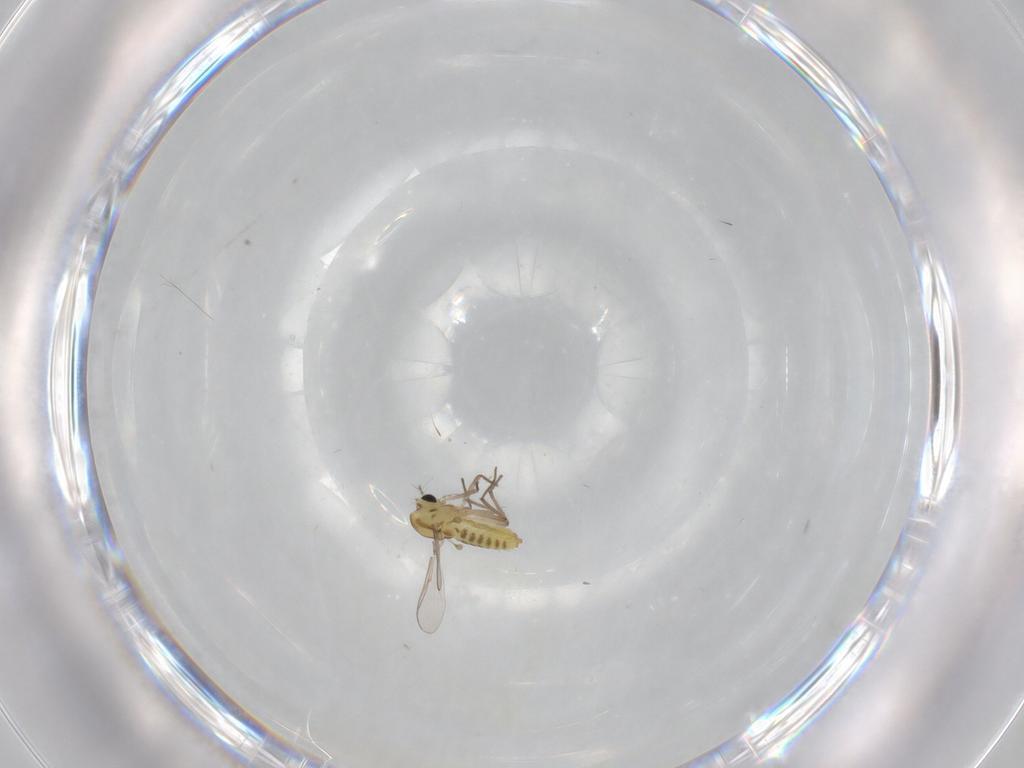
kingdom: Animalia
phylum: Arthropoda
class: Insecta
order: Diptera
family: Chironomidae
